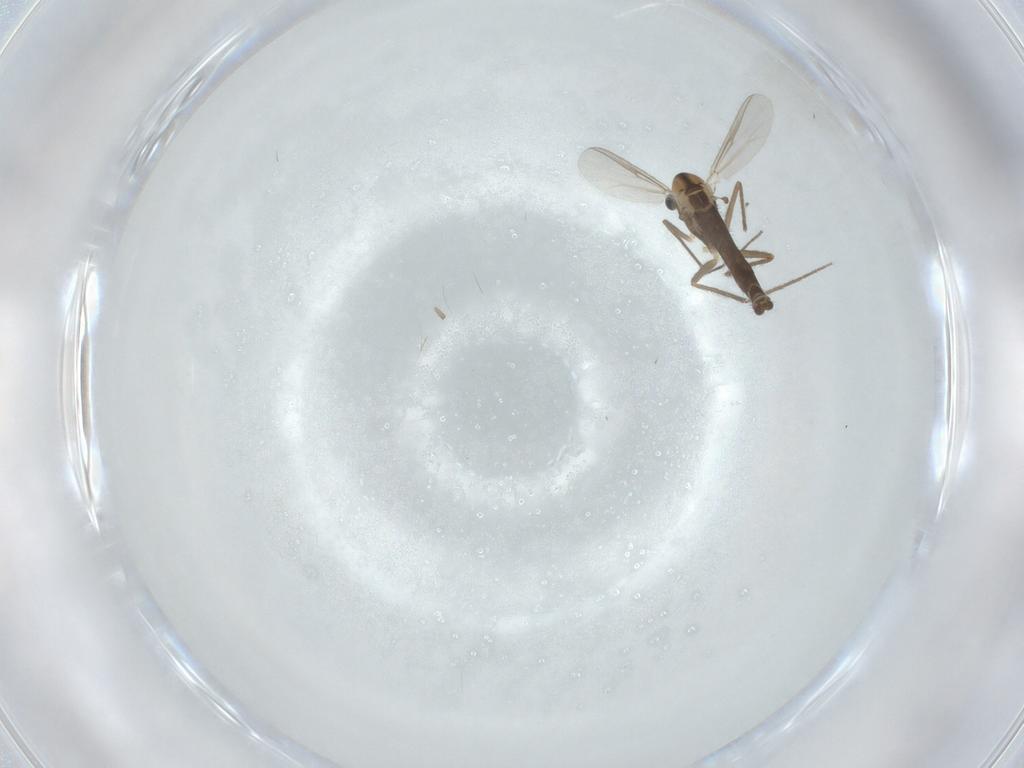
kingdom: Animalia
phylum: Arthropoda
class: Insecta
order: Diptera
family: Chironomidae
